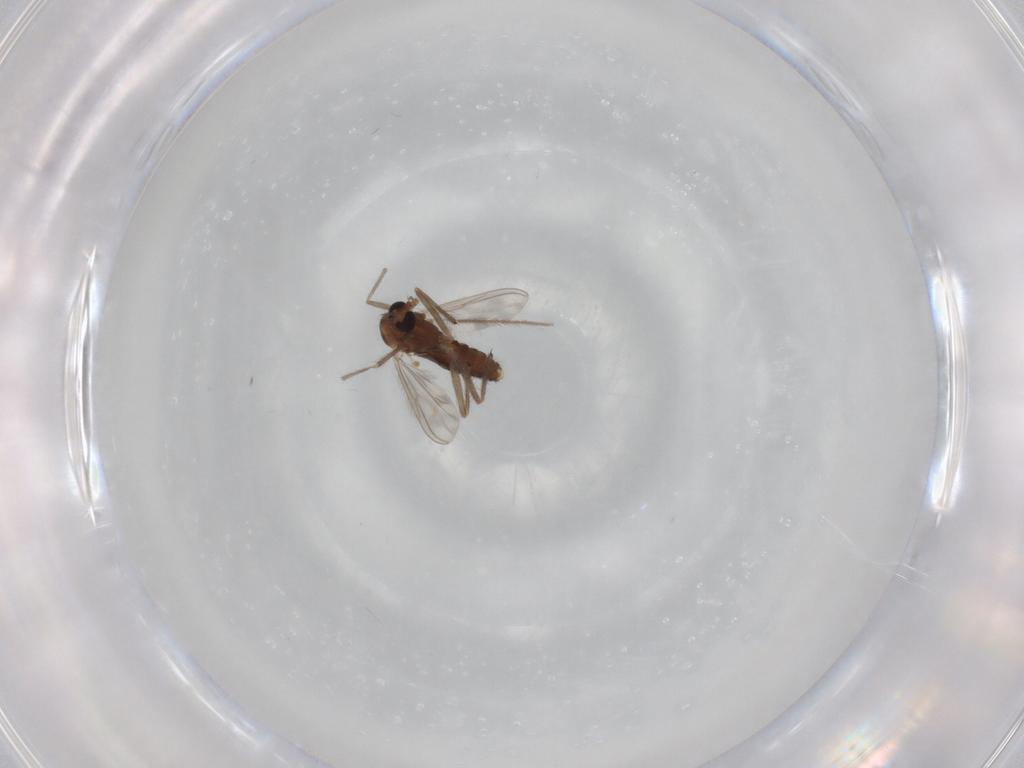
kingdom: Animalia
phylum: Arthropoda
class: Insecta
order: Diptera
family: Chironomidae
